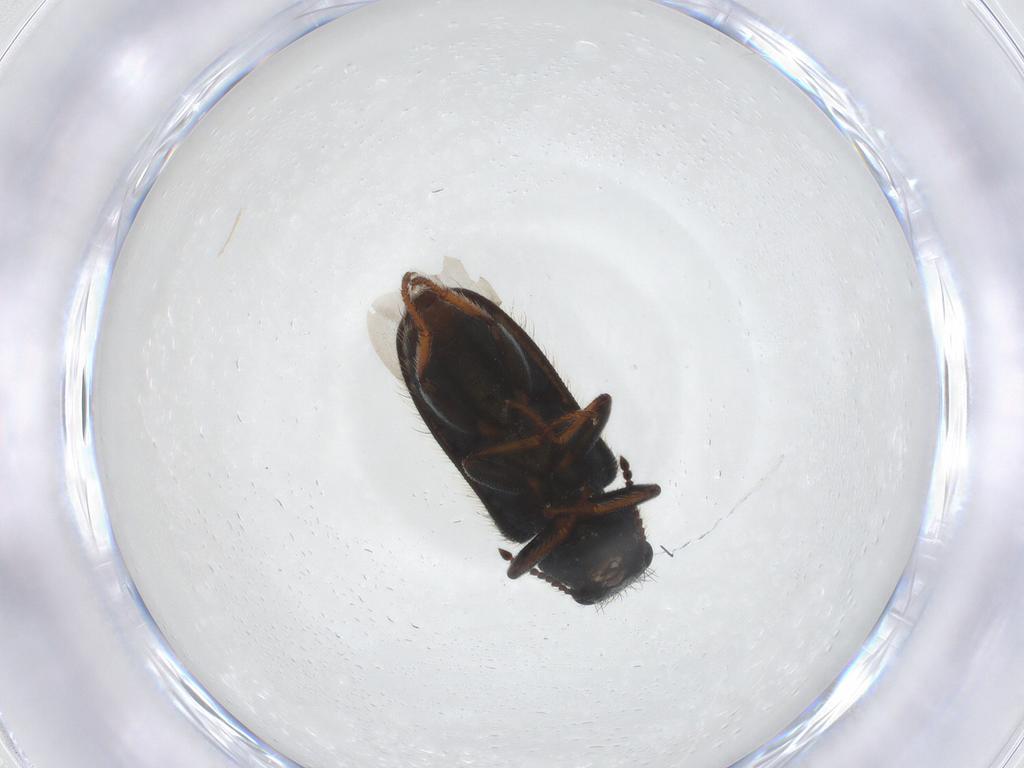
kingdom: Animalia
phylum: Arthropoda
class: Insecta
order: Coleoptera
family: Melyridae
